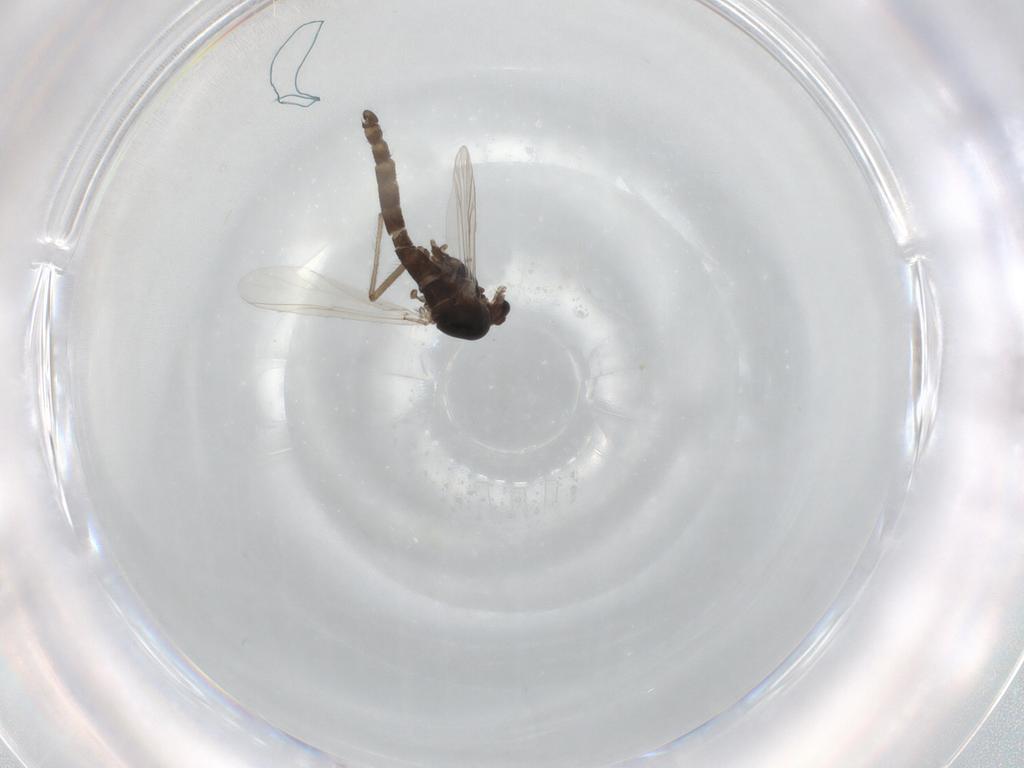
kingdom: Animalia
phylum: Arthropoda
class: Insecta
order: Diptera
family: Chironomidae
